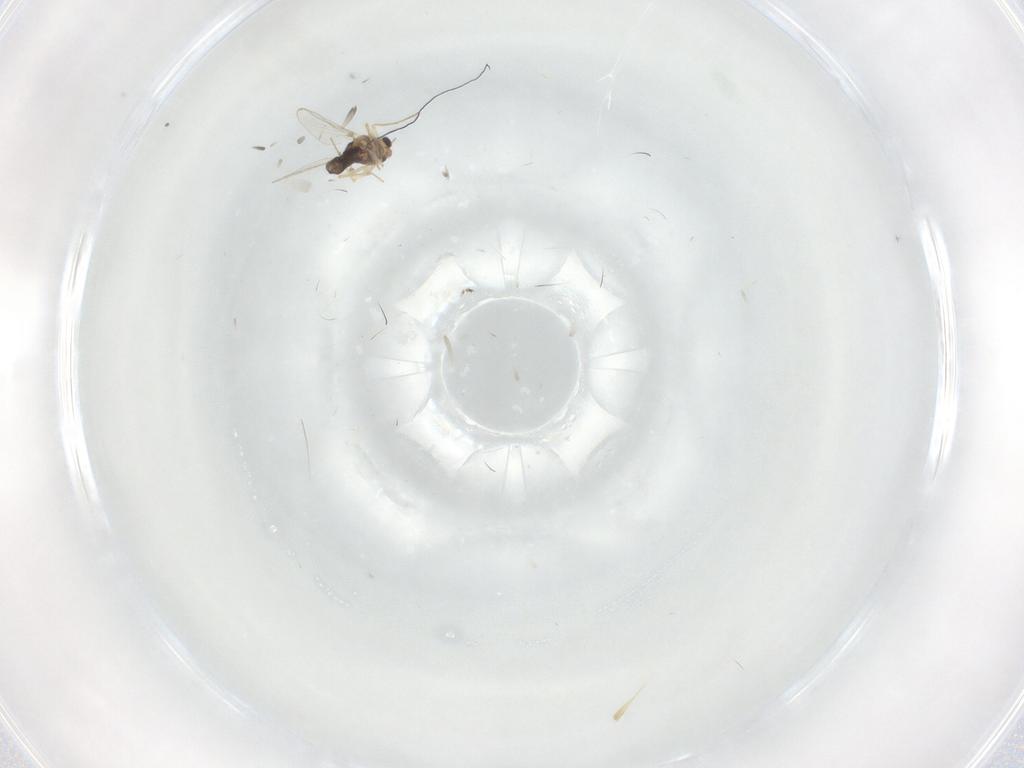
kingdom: Animalia
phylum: Arthropoda
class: Insecta
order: Diptera
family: Chironomidae
